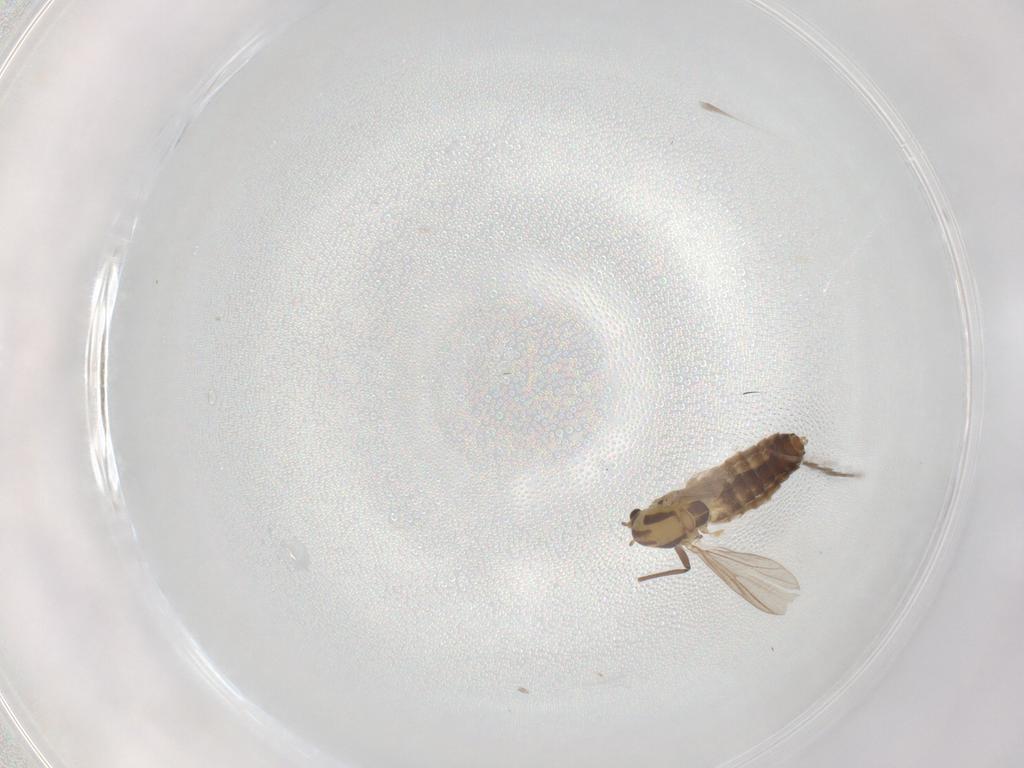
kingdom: Animalia
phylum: Arthropoda
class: Insecta
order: Diptera
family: Chironomidae
